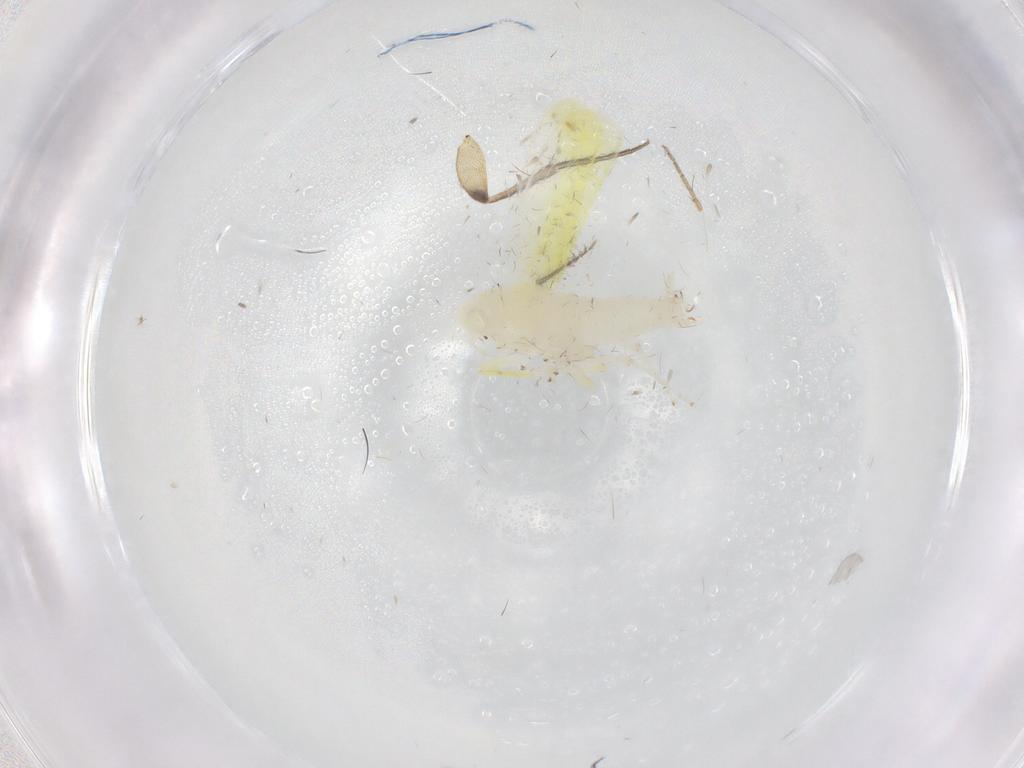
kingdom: Animalia
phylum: Arthropoda
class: Insecta
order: Hemiptera
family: Cicadellidae
